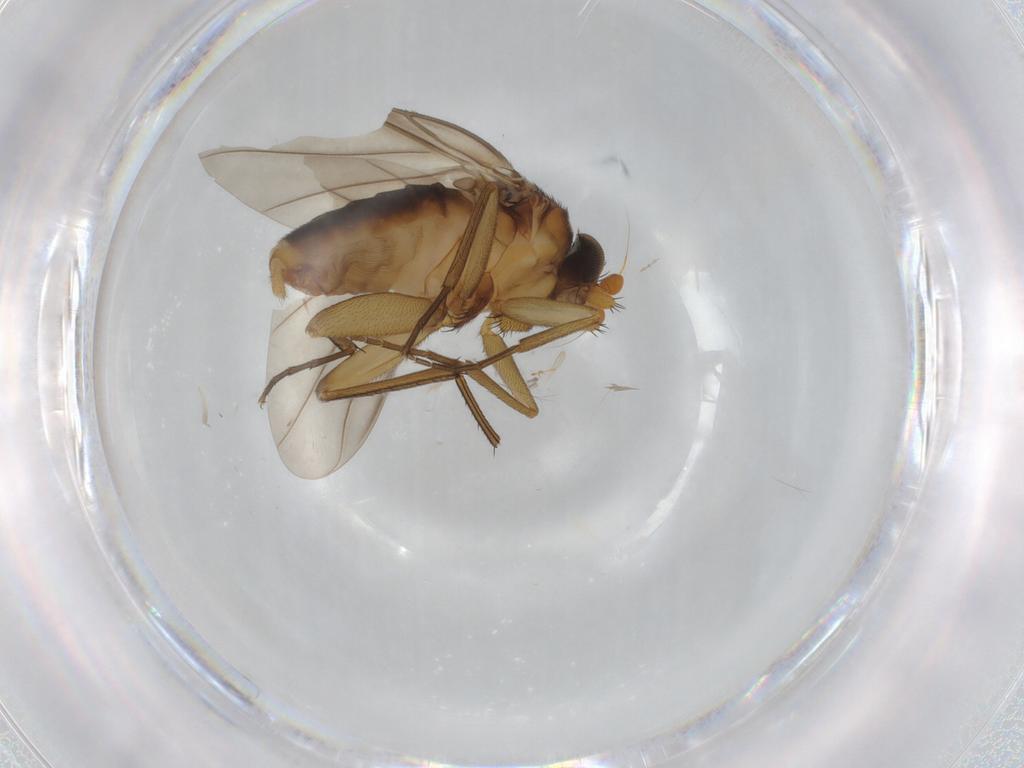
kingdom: Animalia
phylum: Arthropoda
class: Insecta
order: Diptera
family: Phoridae
